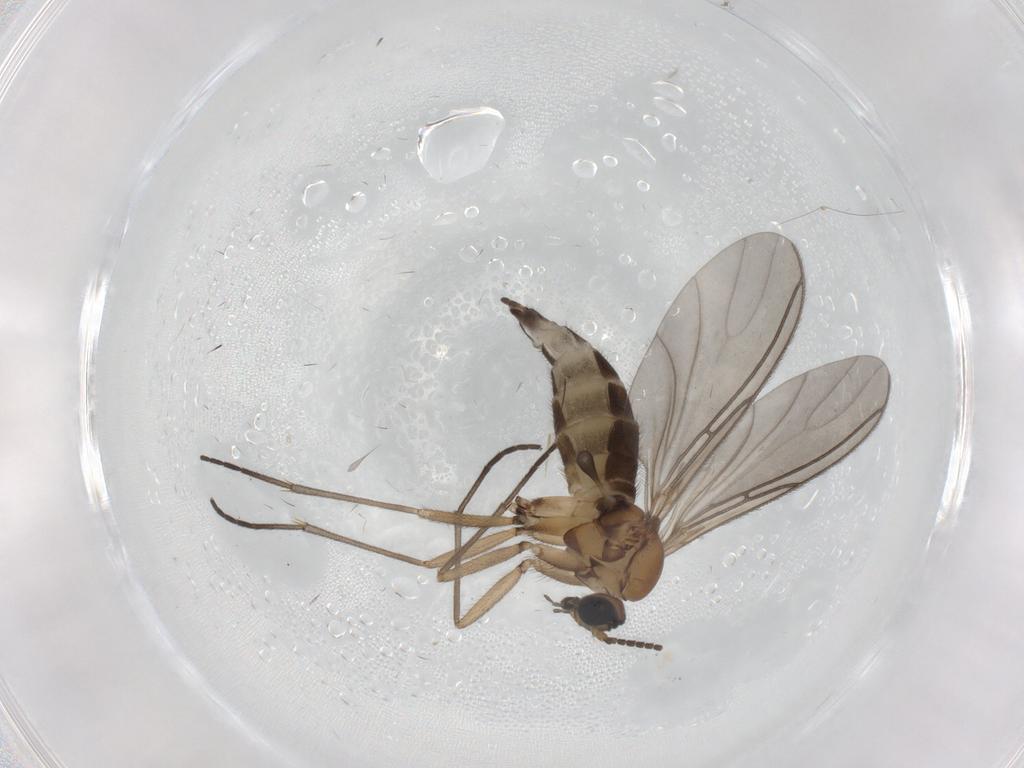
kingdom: Animalia
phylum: Arthropoda
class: Insecta
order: Diptera
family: Sciaridae
